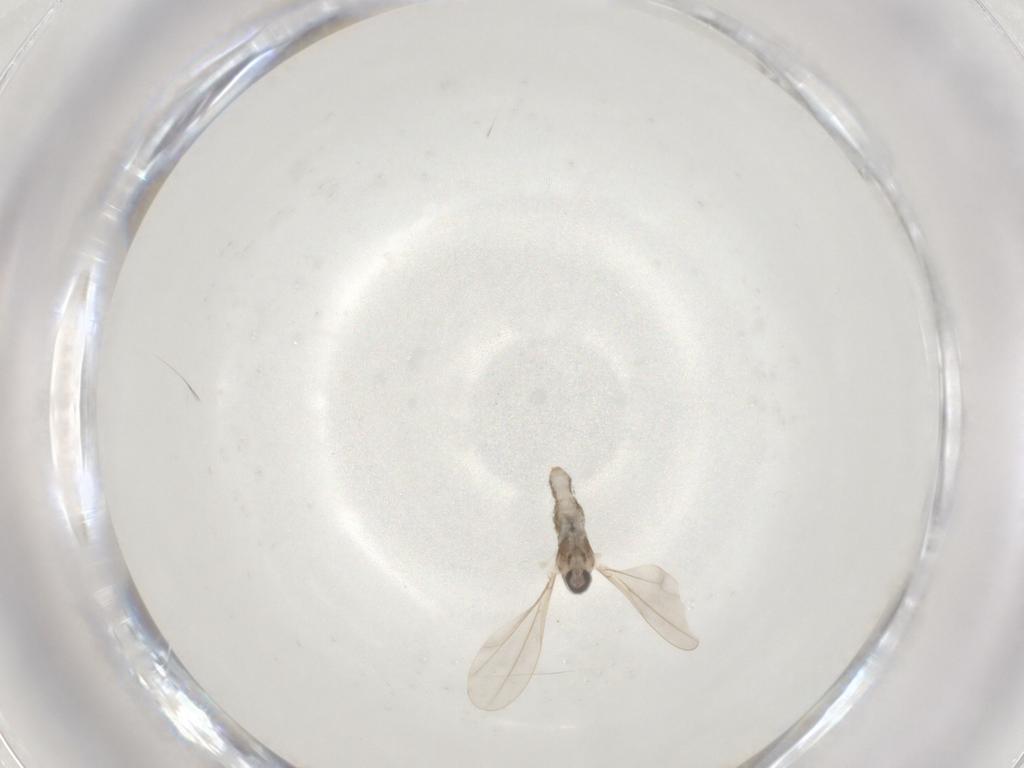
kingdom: Animalia
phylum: Arthropoda
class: Insecta
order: Diptera
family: Cecidomyiidae
